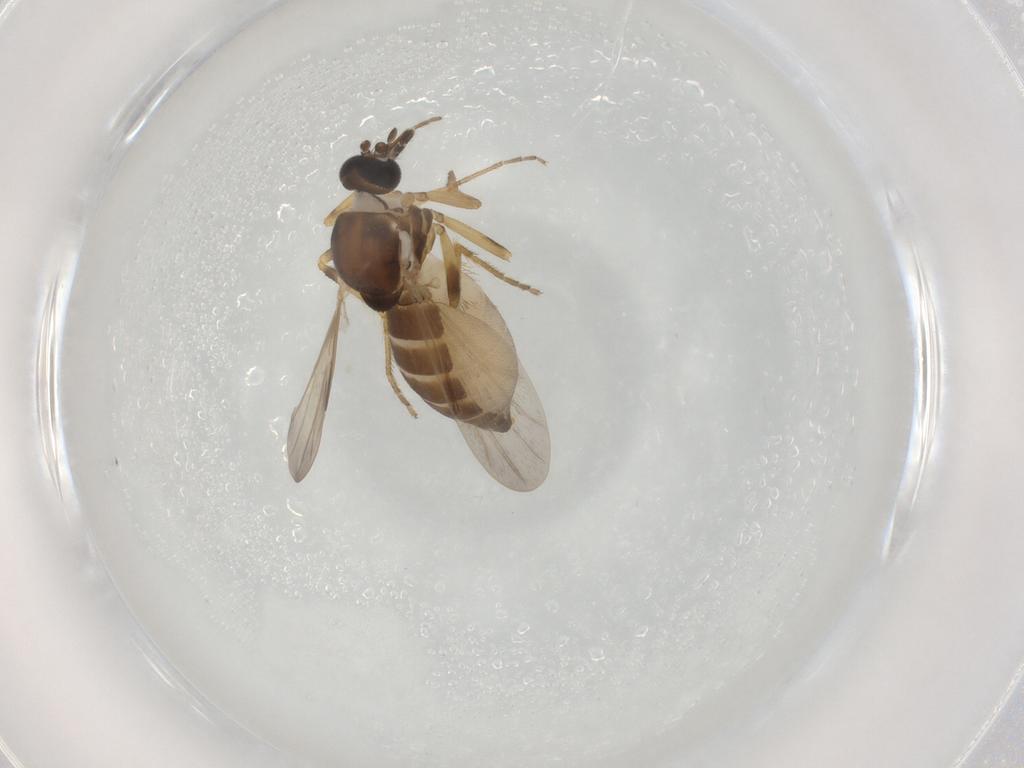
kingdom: Animalia
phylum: Arthropoda
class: Insecta
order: Diptera
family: Ceratopogonidae
